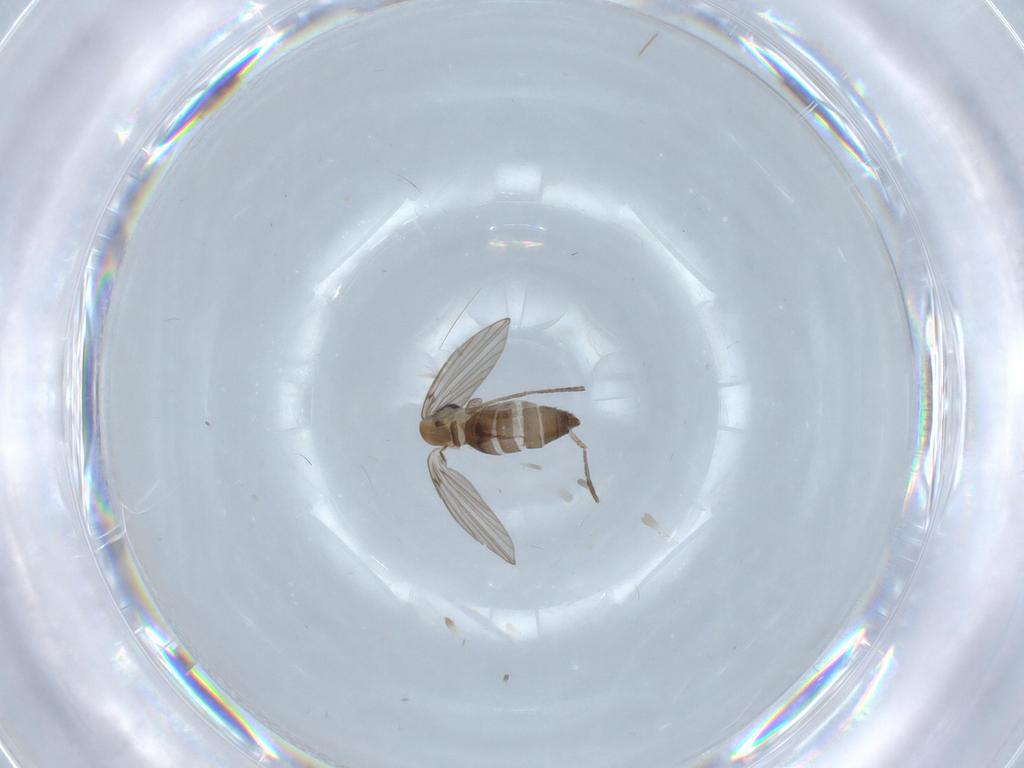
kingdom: Animalia
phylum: Arthropoda
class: Insecta
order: Diptera
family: Psychodidae
